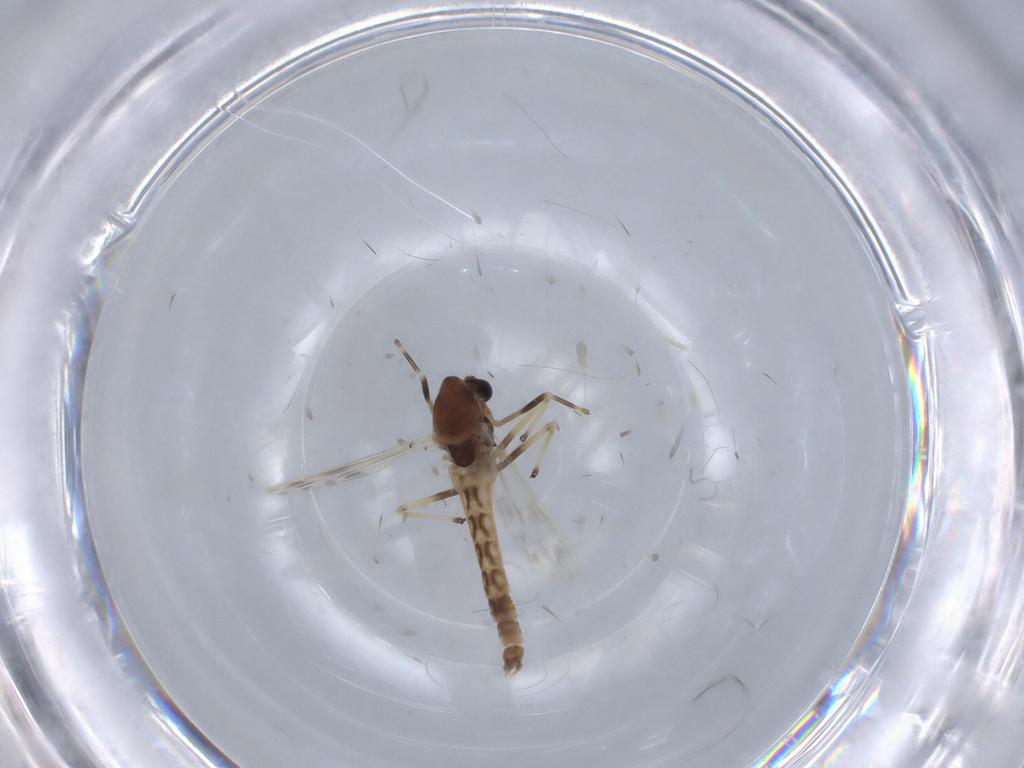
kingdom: Animalia
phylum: Arthropoda
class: Insecta
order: Diptera
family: Chironomidae
